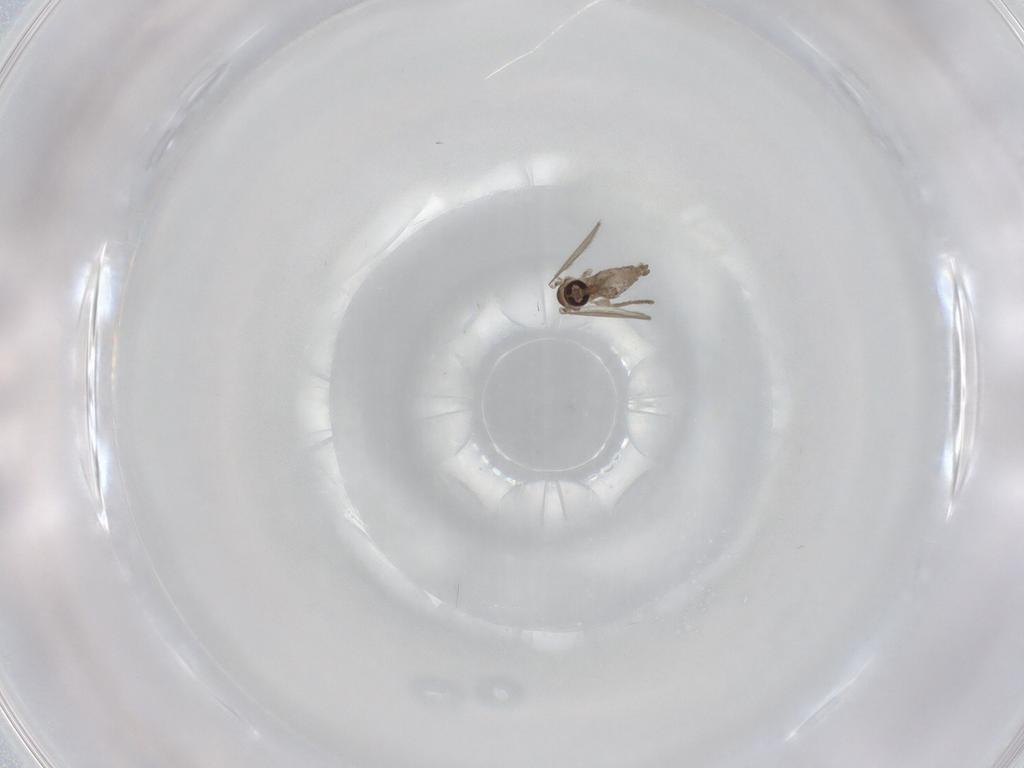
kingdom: Animalia
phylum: Arthropoda
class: Insecta
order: Diptera
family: Psychodidae
